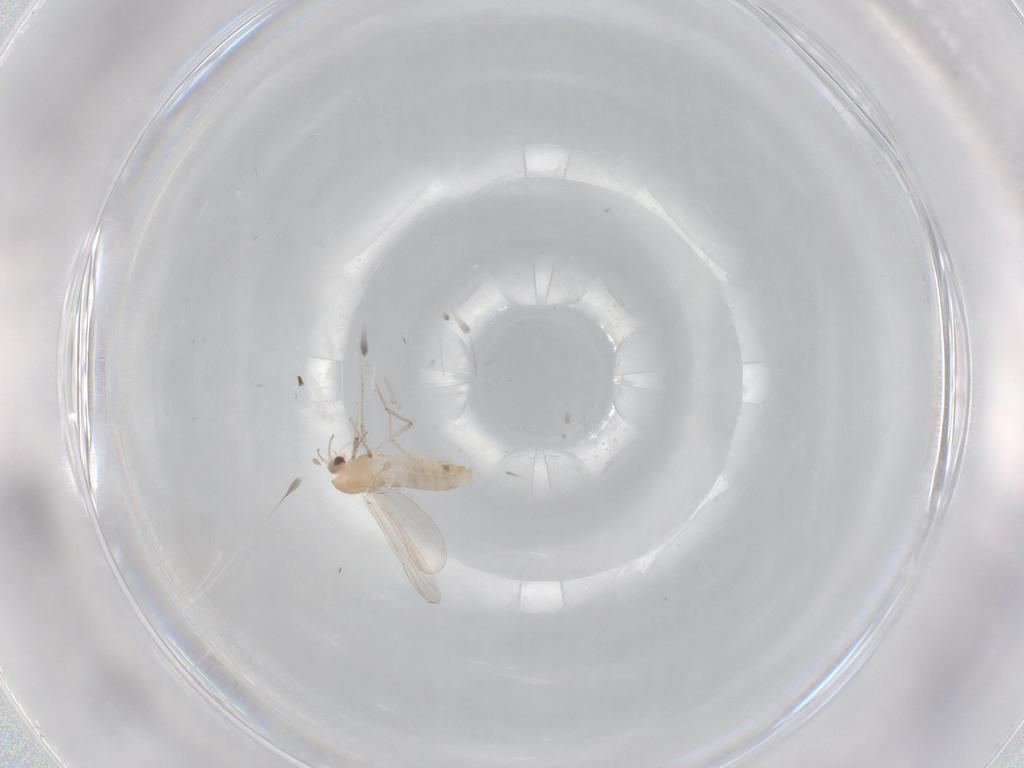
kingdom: Animalia
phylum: Arthropoda
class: Insecta
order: Diptera
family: Chironomidae
